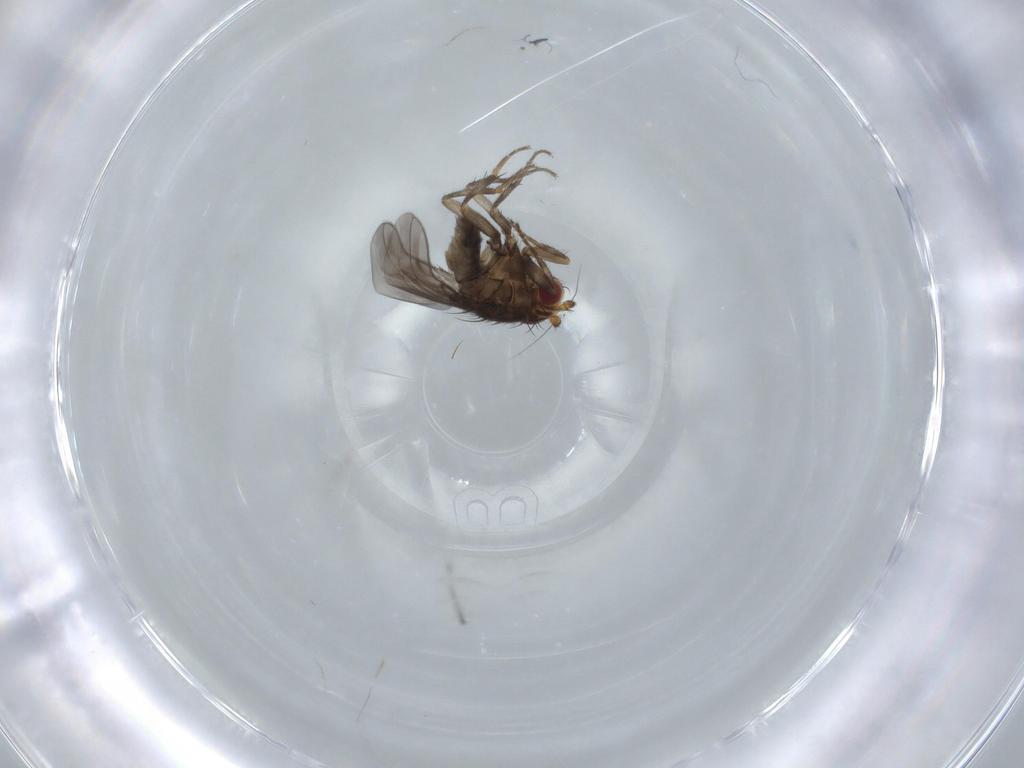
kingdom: Animalia
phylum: Arthropoda
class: Insecta
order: Diptera
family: Sphaeroceridae
